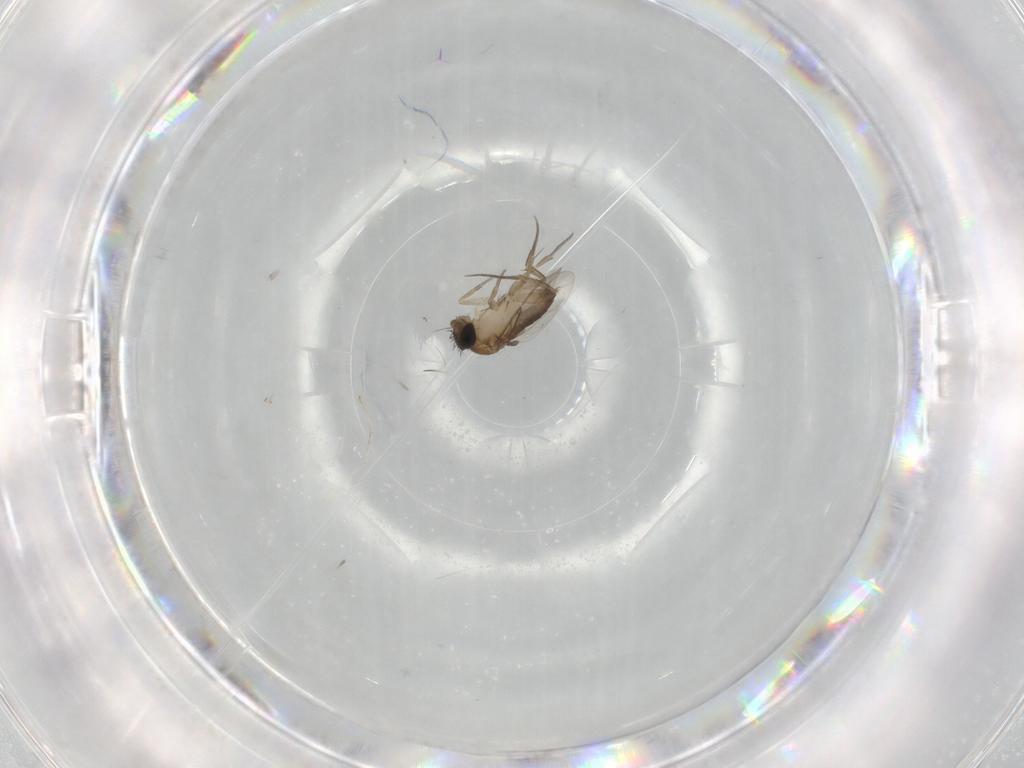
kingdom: Animalia
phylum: Arthropoda
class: Insecta
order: Diptera
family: Phoridae
